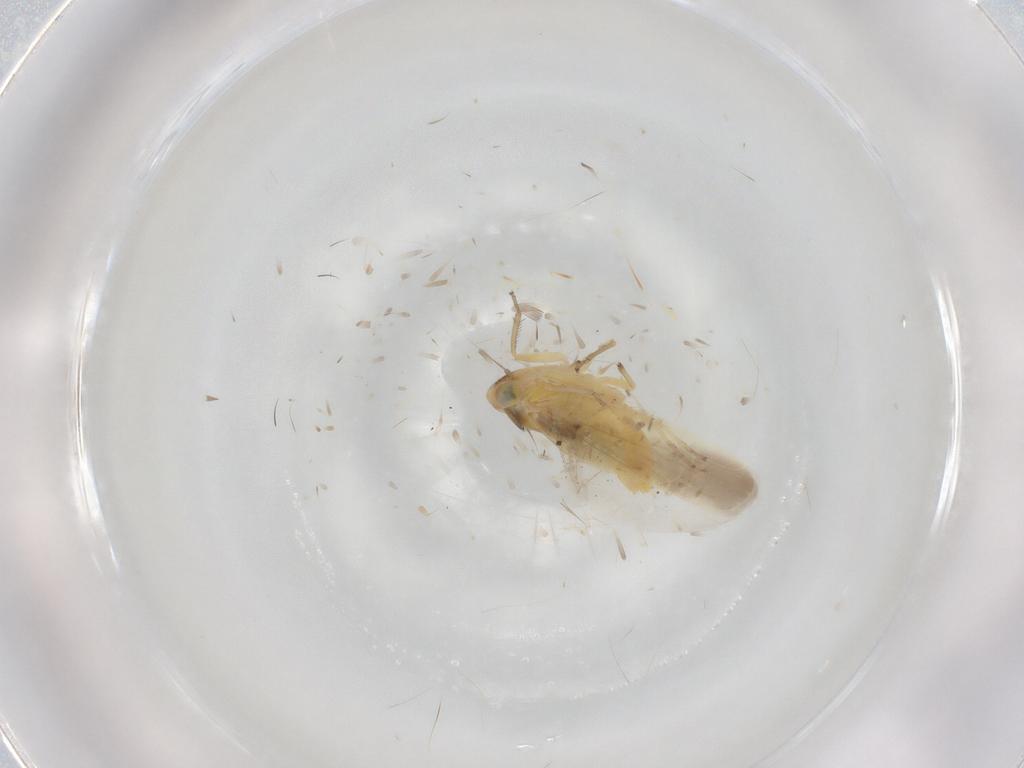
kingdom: Animalia
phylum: Arthropoda
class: Insecta
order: Hemiptera
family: Cicadellidae
